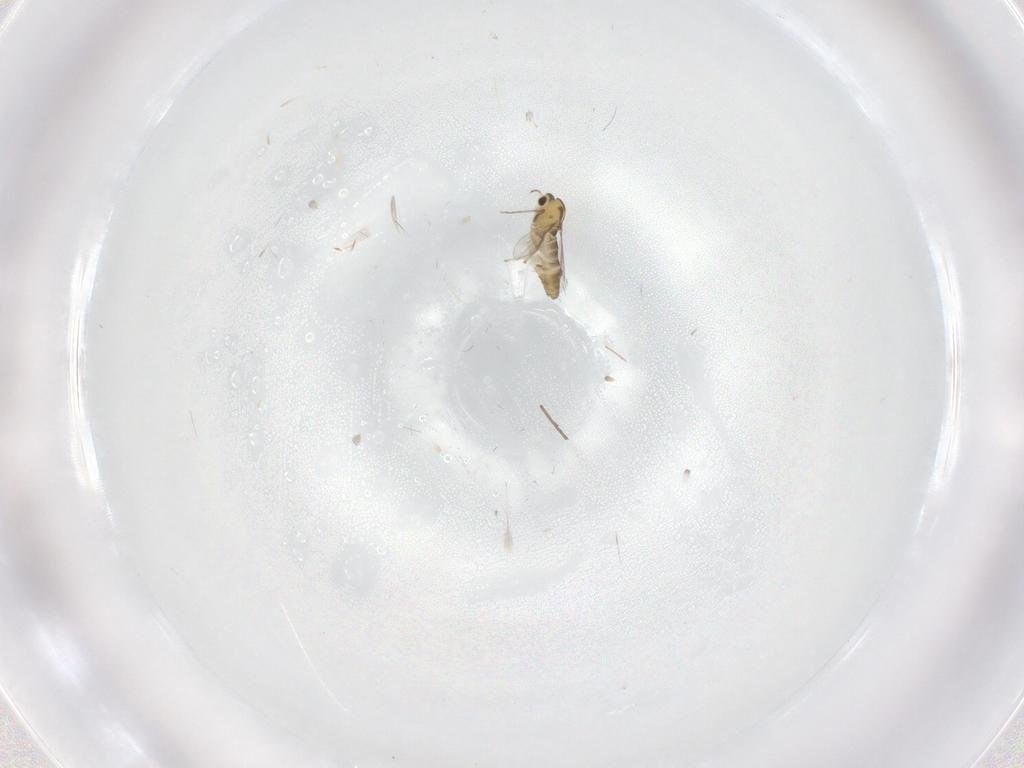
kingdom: Animalia
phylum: Arthropoda
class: Insecta
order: Diptera
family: Chironomidae
